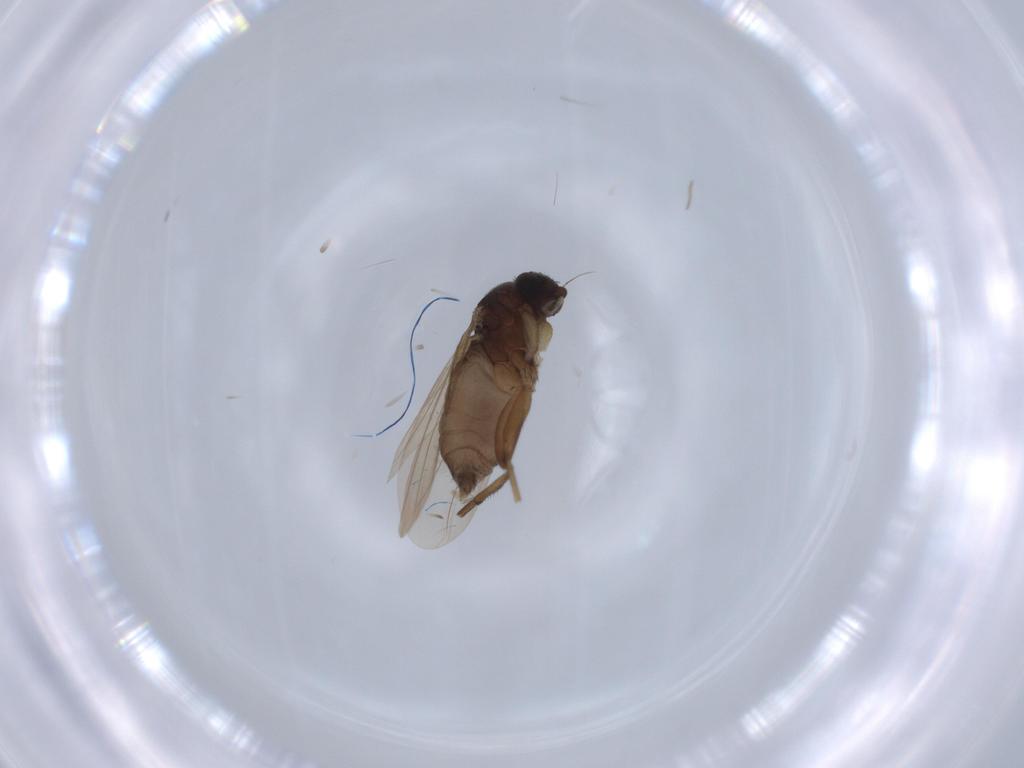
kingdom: Animalia
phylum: Arthropoda
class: Insecta
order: Diptera
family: Phoridae
